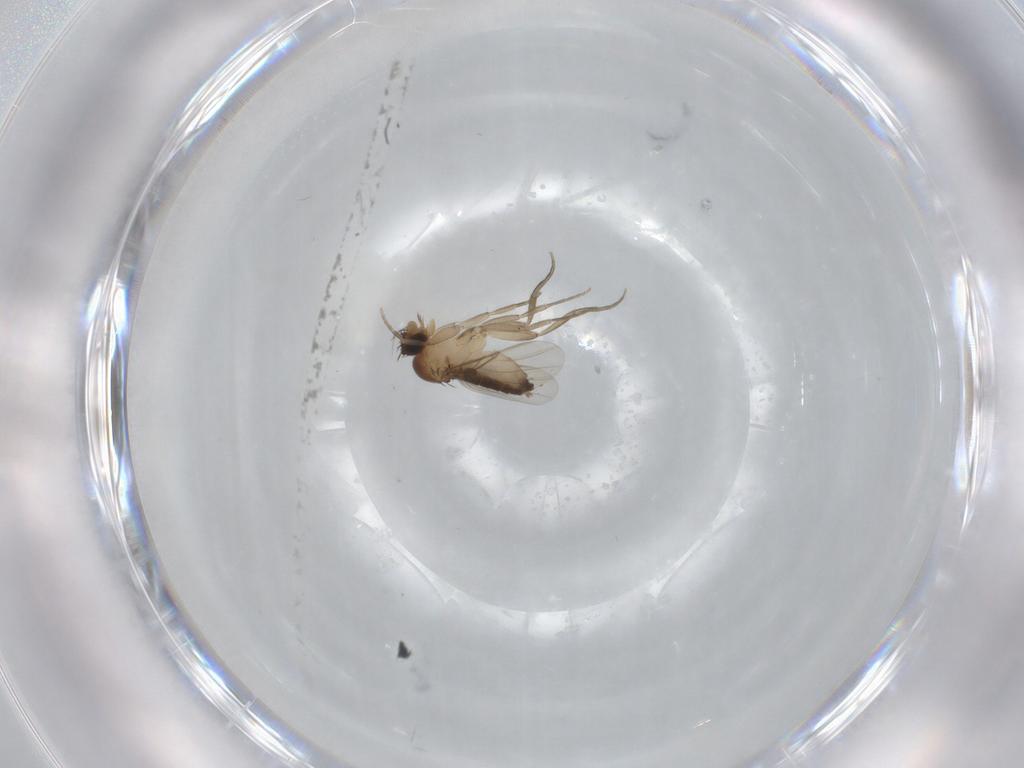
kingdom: Animalia
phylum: Arthropoda
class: Insecta
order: Diptera
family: Phoridae
